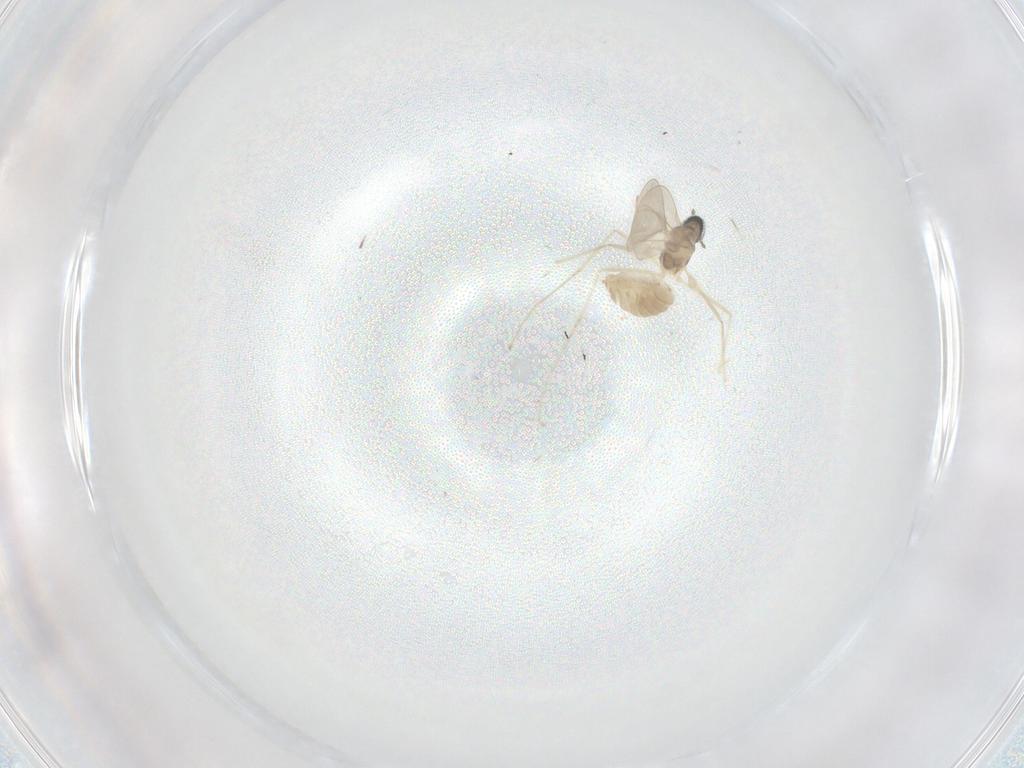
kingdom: Animalia
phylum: Arthropoda
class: Insecta
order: Diptera
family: Cecidomyiidae
